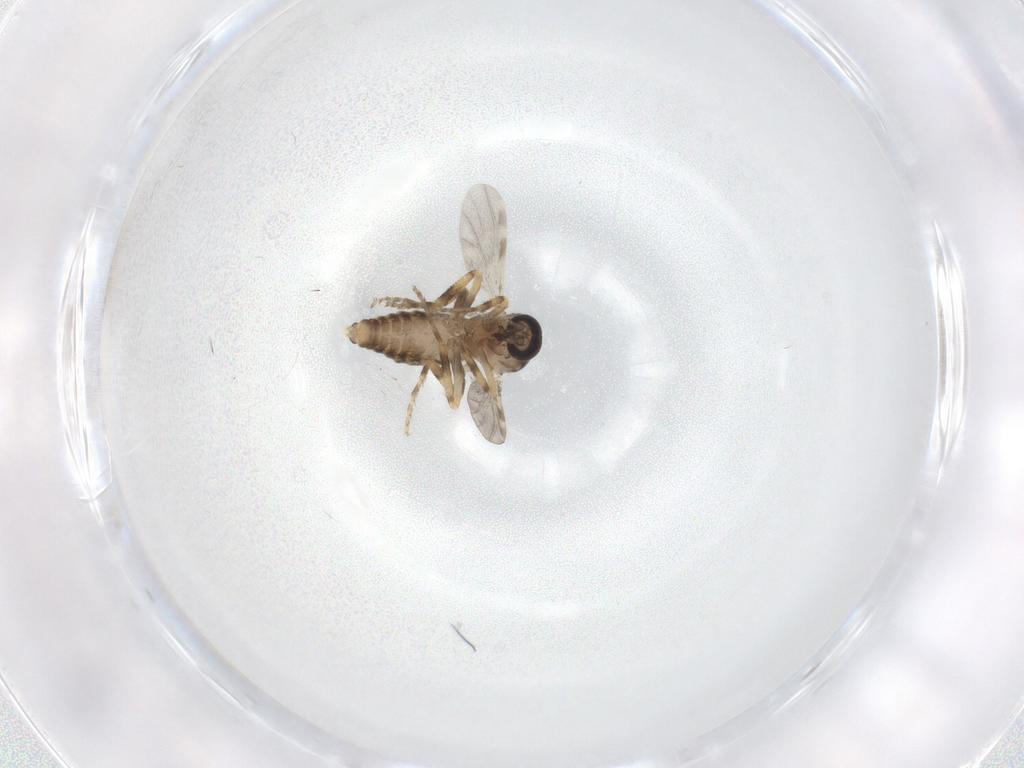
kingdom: Animalia
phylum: Arthropoda
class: Insecta
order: Diptera
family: Ceratopogonidae
